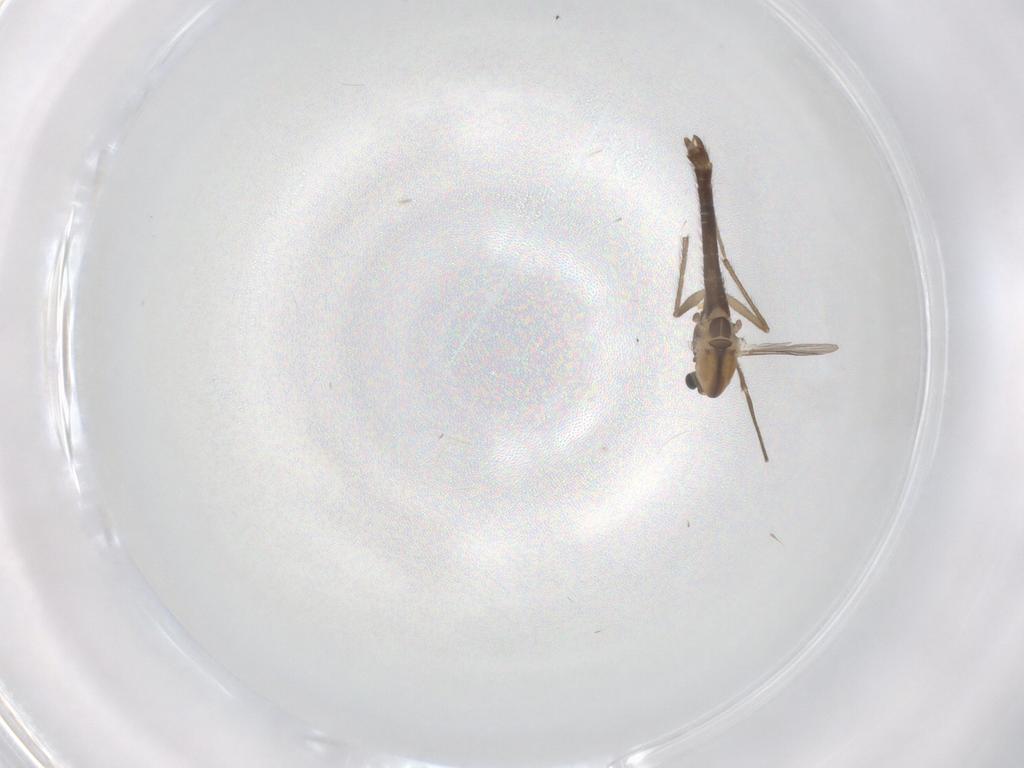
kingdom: Animalia
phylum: Arthropoda
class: Insecta
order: Diptera
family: Chironomidae
